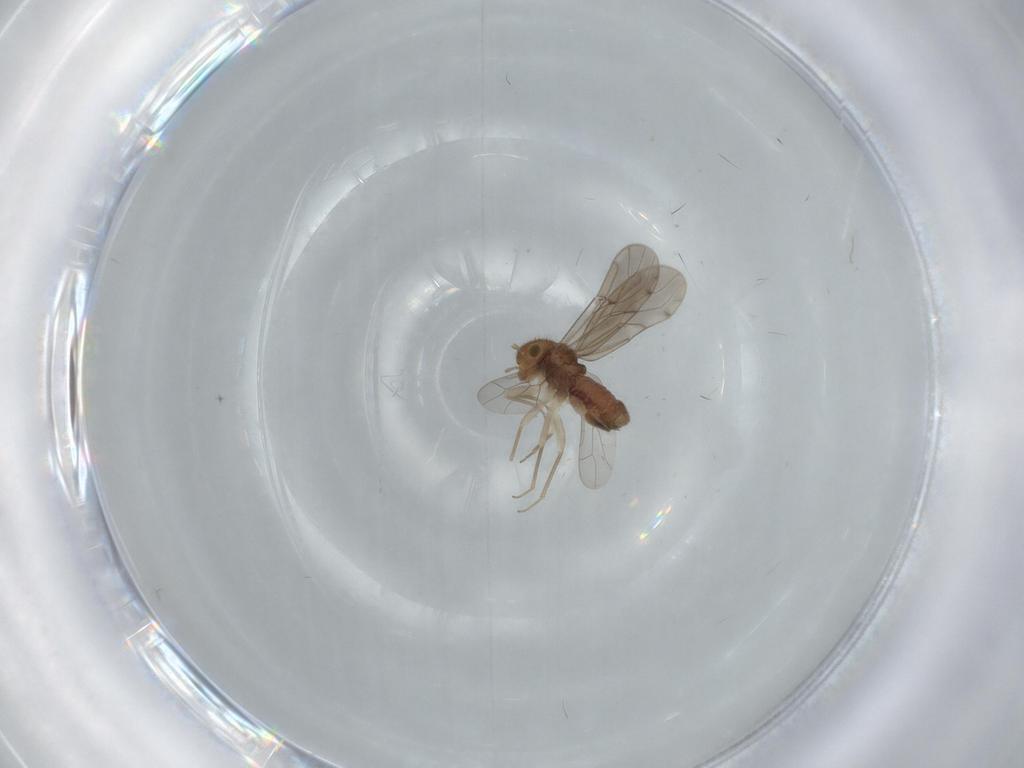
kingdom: Animalia
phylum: Arthropoda
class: Insecta
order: Psocodea
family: Ectopsocidae
